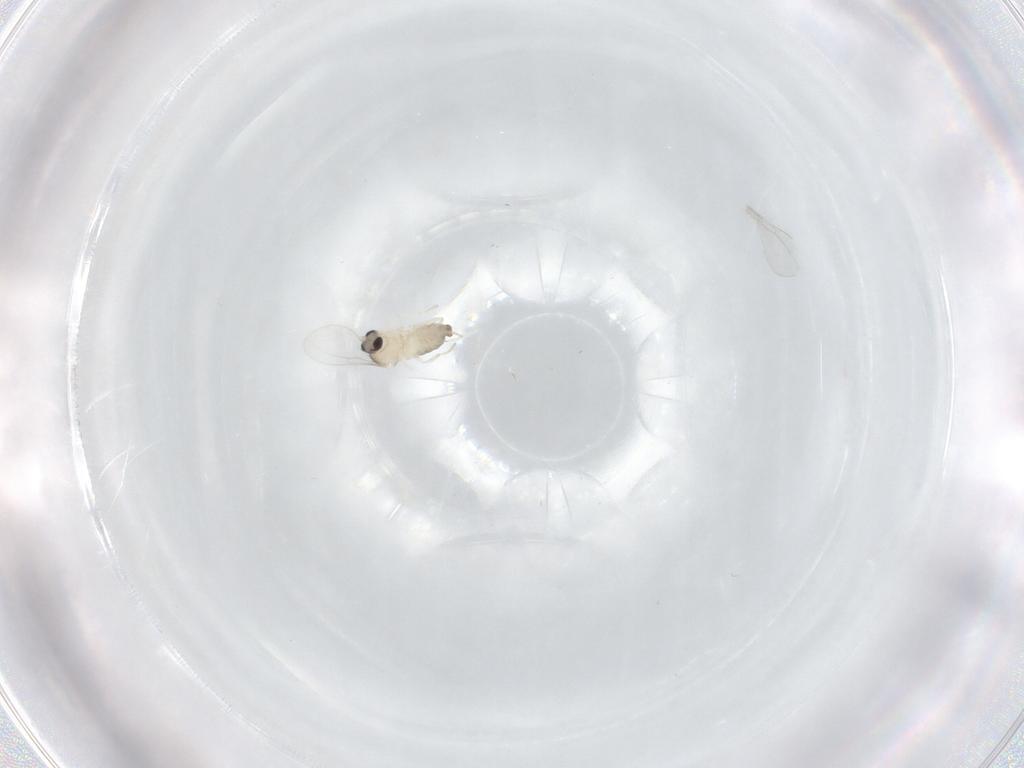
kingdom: Animalia
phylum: Arthropoda
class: Insecta
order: Diptera
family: Cecidomyiidae
